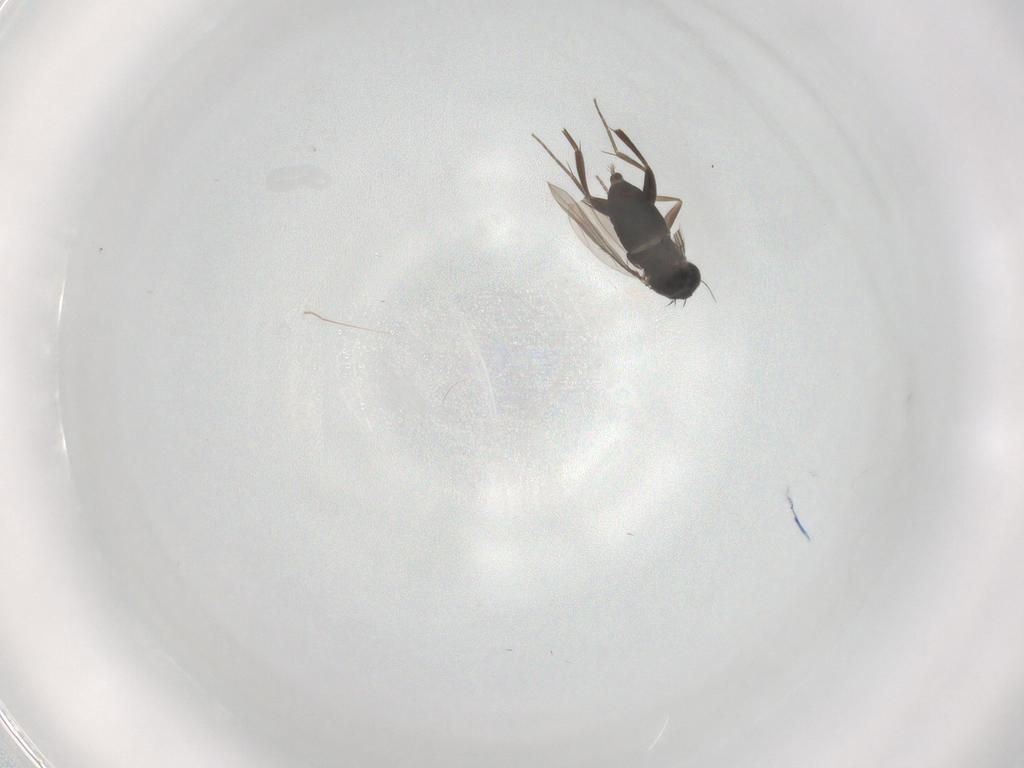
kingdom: Animalia
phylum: Arthropoda
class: Insecta
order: Diptera
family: Phoridae
